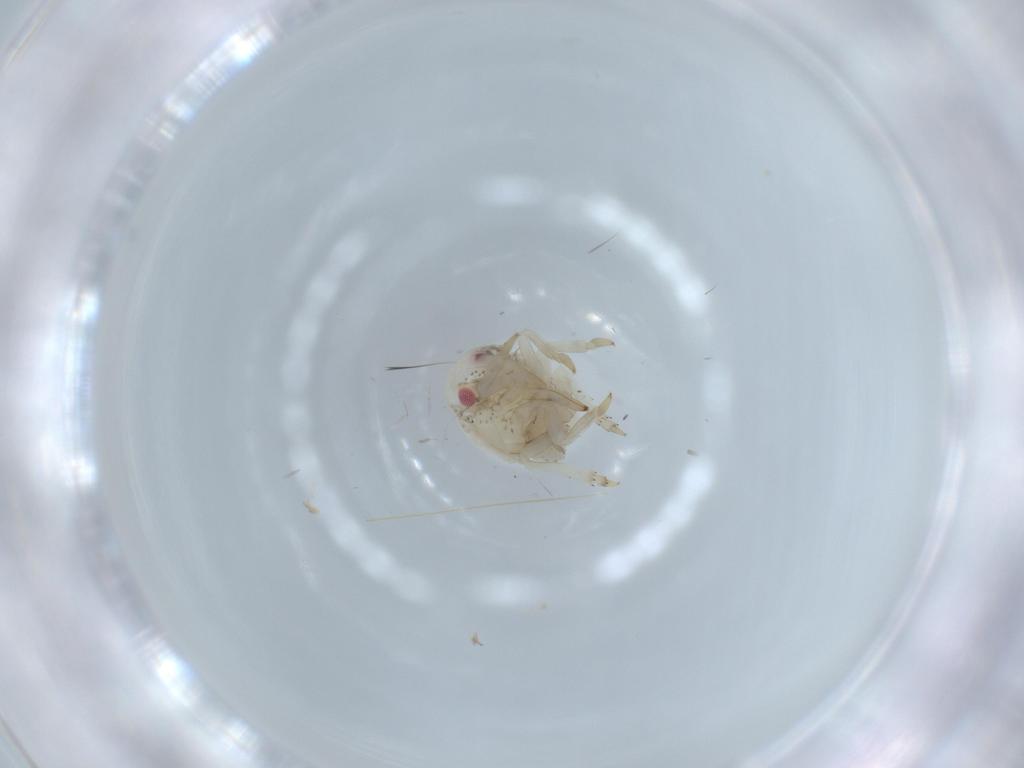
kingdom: Animalia
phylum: Arthropoda
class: Insecta
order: Hemiptera
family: Acanaloniidae
